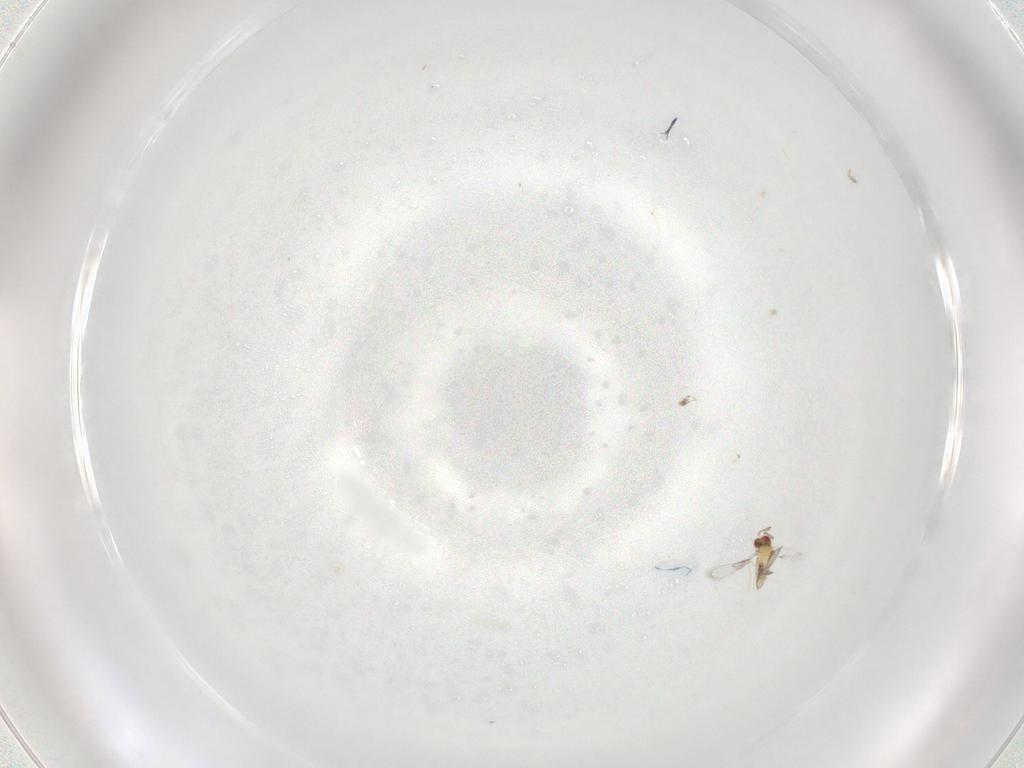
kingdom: Animalia
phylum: Arthropoda
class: Insecta
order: Hymenoptera
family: Trichogrammatidae
